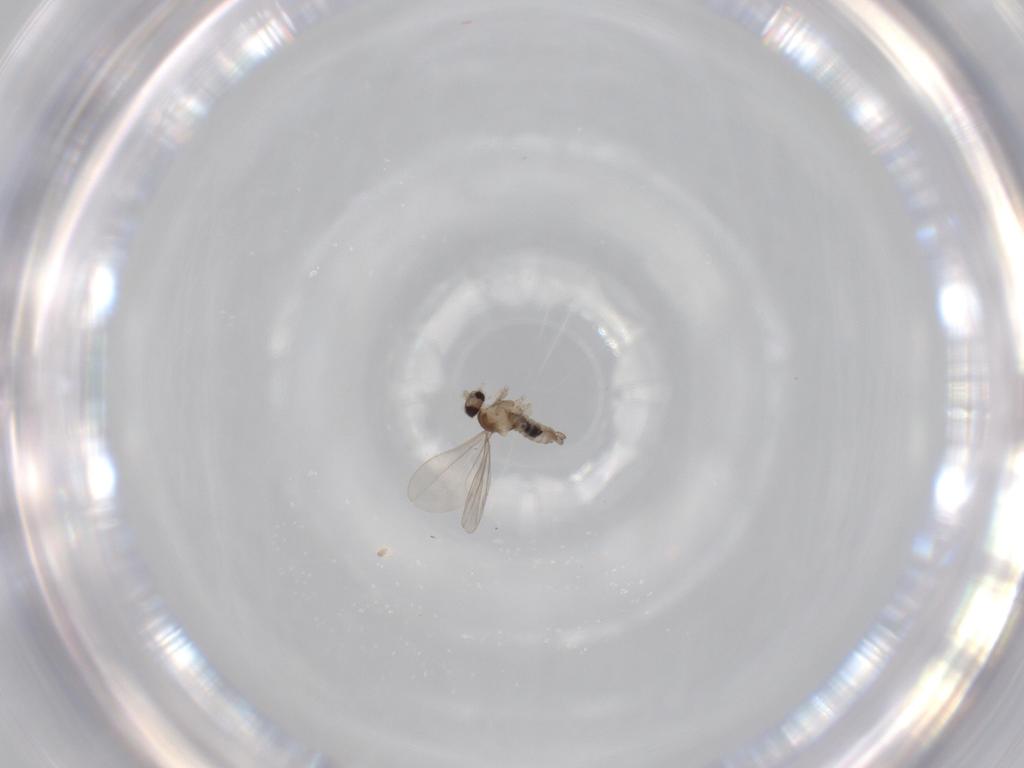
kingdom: Animalia
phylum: Arthropoda
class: Insecta
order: Diptera
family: Cecidomyiidae
